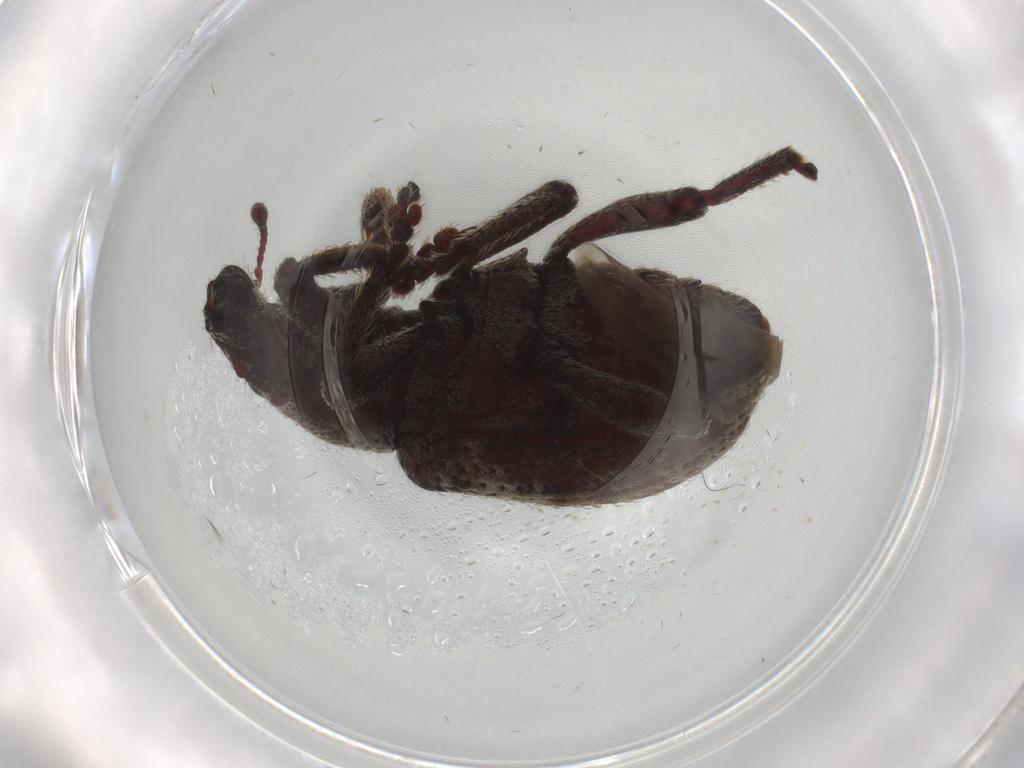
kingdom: Animalia
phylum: Arthropoda
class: Insecta
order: Coleoptera
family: Curculionidae
